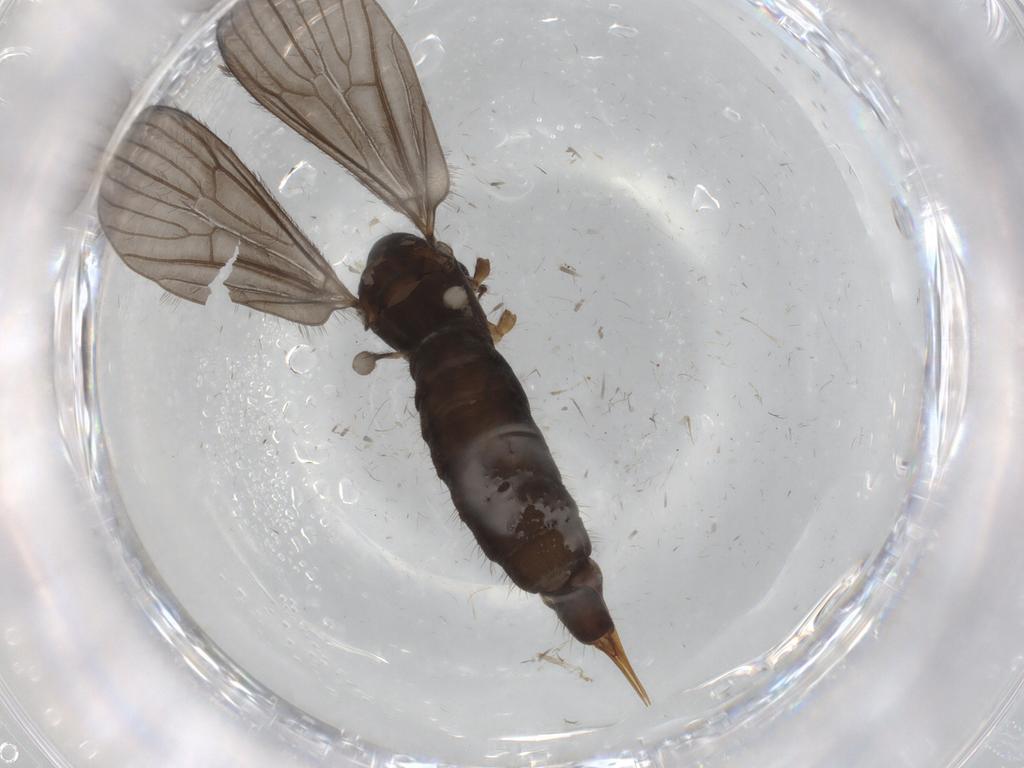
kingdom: Animalia
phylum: Arthropoda
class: Insecta
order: Diptera
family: Limoniidae
